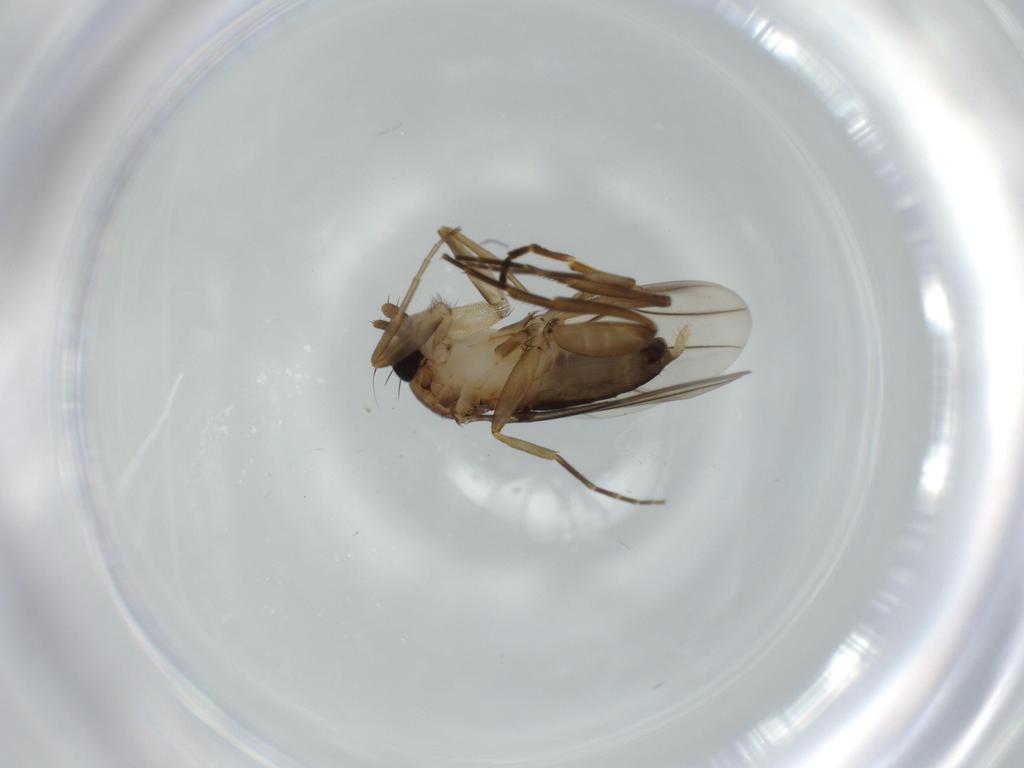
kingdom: Animalia
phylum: Arthropoda
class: Insecta
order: Diptera
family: Phoridae
